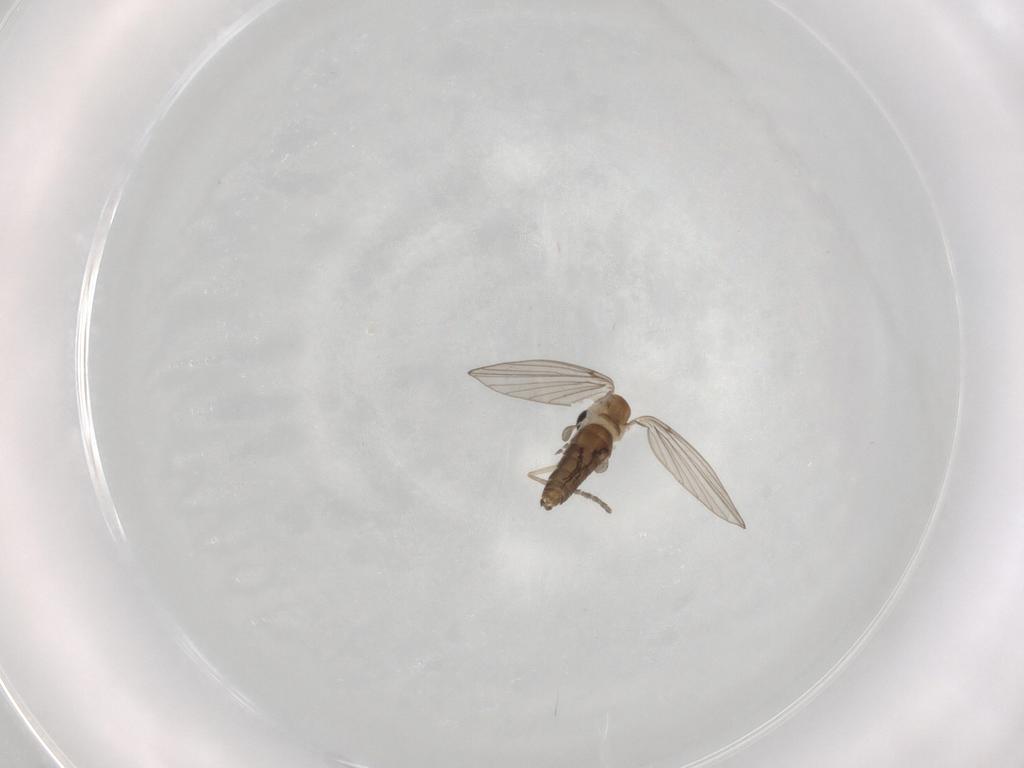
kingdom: Animalia
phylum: Arthropoda
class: Insecta
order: Diptera
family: Psychodidae
